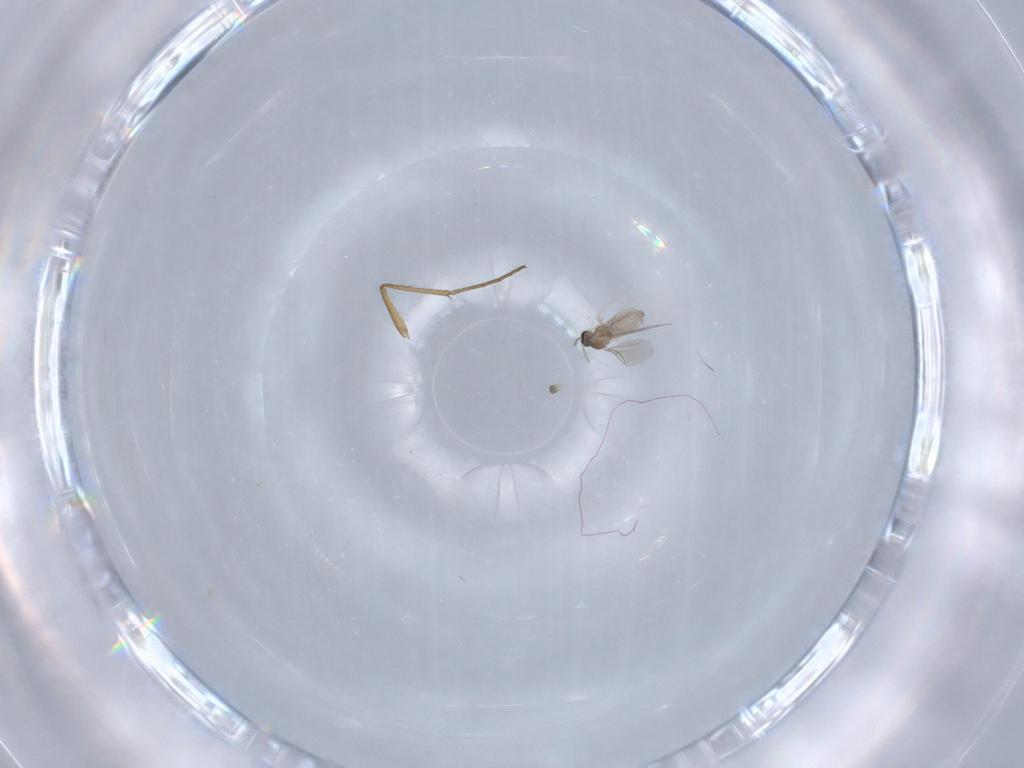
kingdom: Animalia
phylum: Arthropoda
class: Insecta
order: Diptera
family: Dolichopodidae
